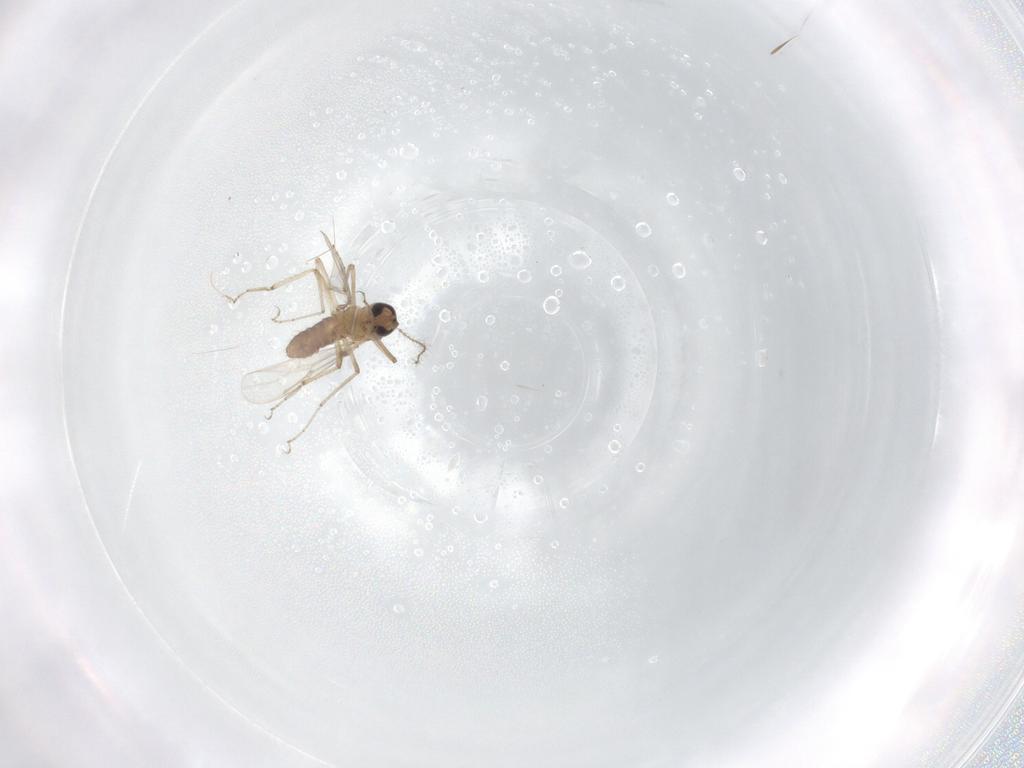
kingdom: Animalia
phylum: Arthropoda
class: Insecta
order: Diptera
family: Ceratopogonidae
